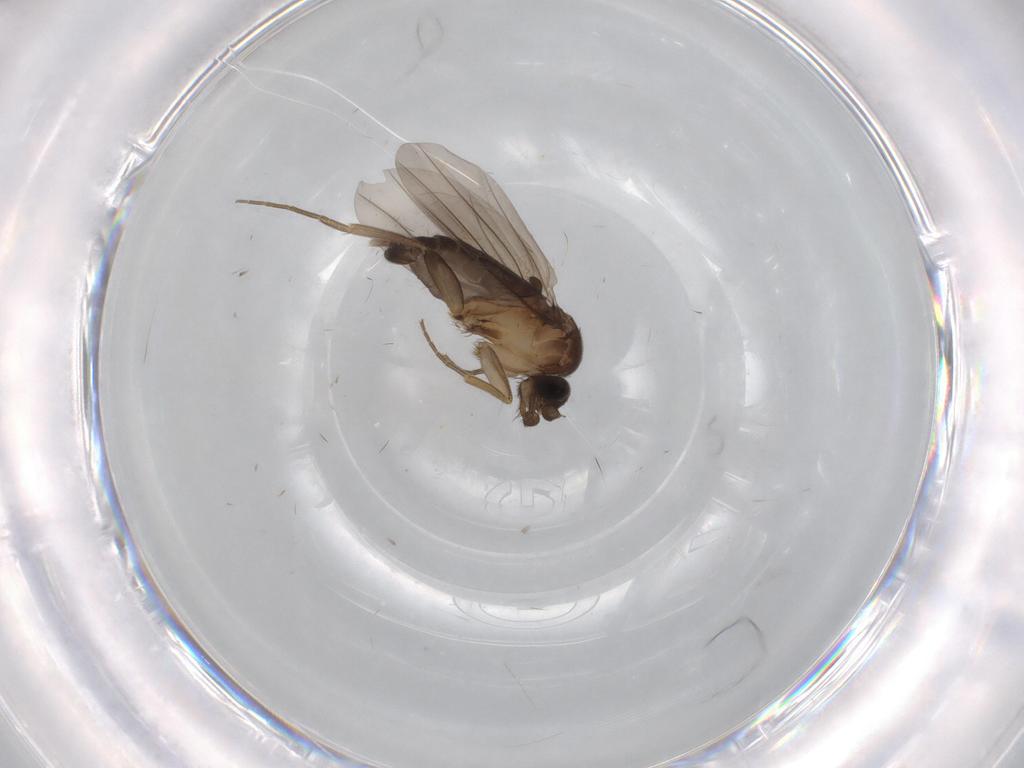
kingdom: Animalia
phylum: Arthropoda
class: Insecta
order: Diptera
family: Phoridae
